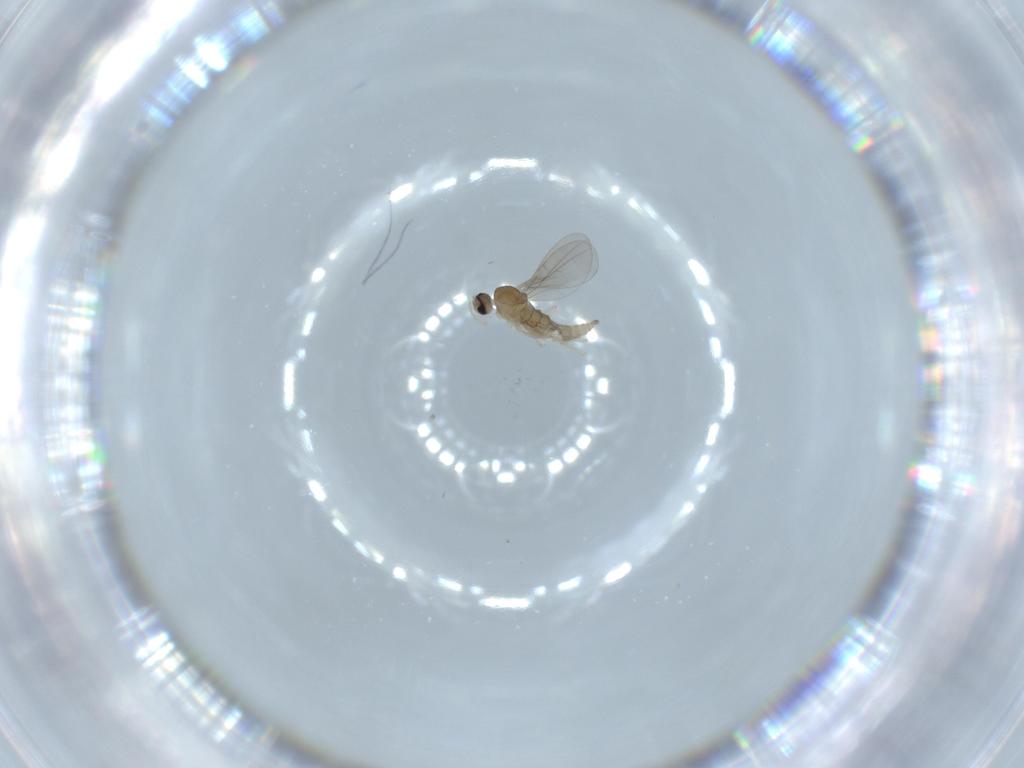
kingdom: Animalia
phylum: Arthropoda
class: Insecta
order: Diptera
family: Cecidomyiidae
